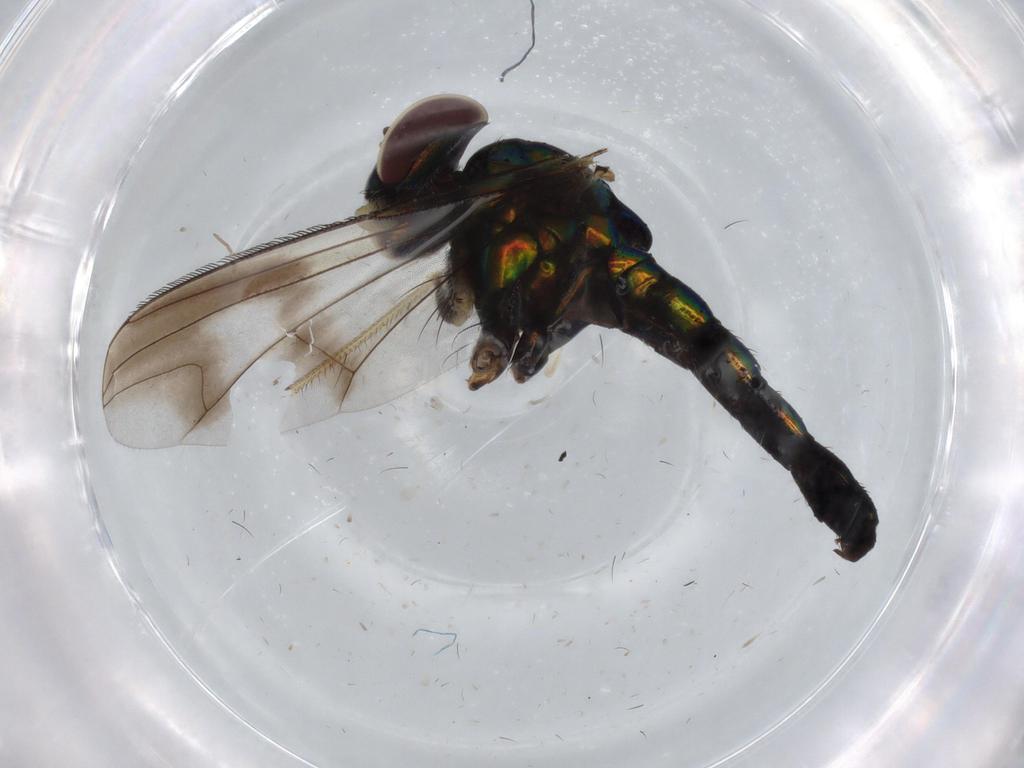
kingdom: Animalia
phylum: Arthropoda
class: Insecta
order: Diptera
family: Dolichopodidae
